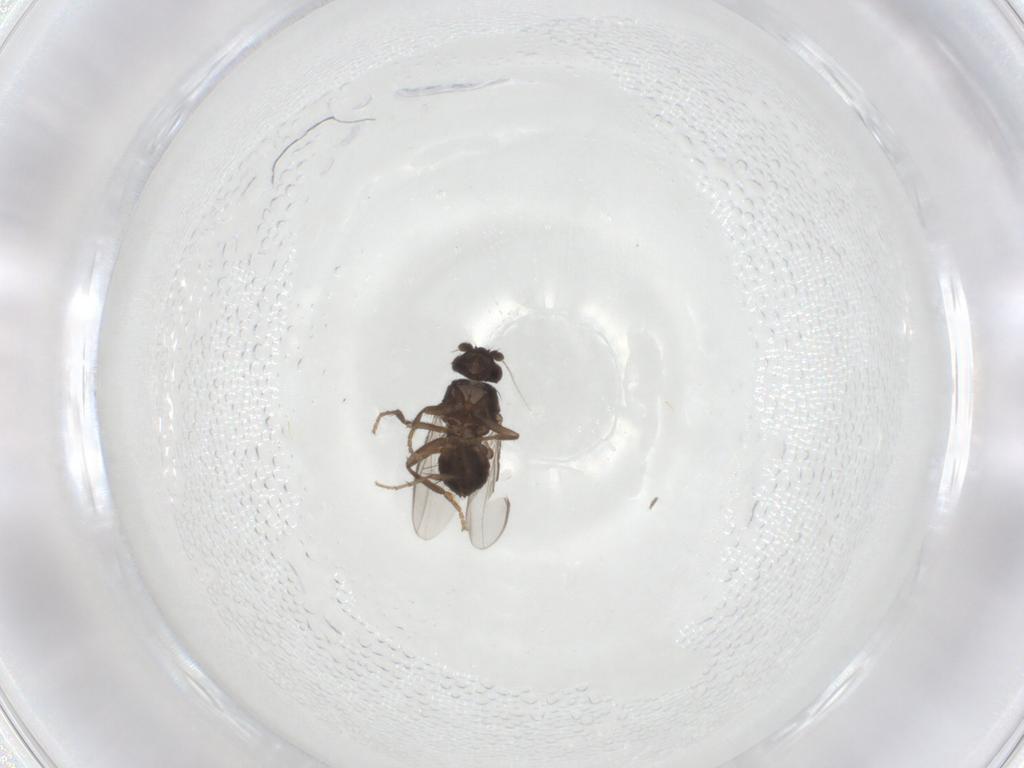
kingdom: Animalia
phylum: Arthropoda
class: Insecta
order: Diptera
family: Sphaeroceridae
